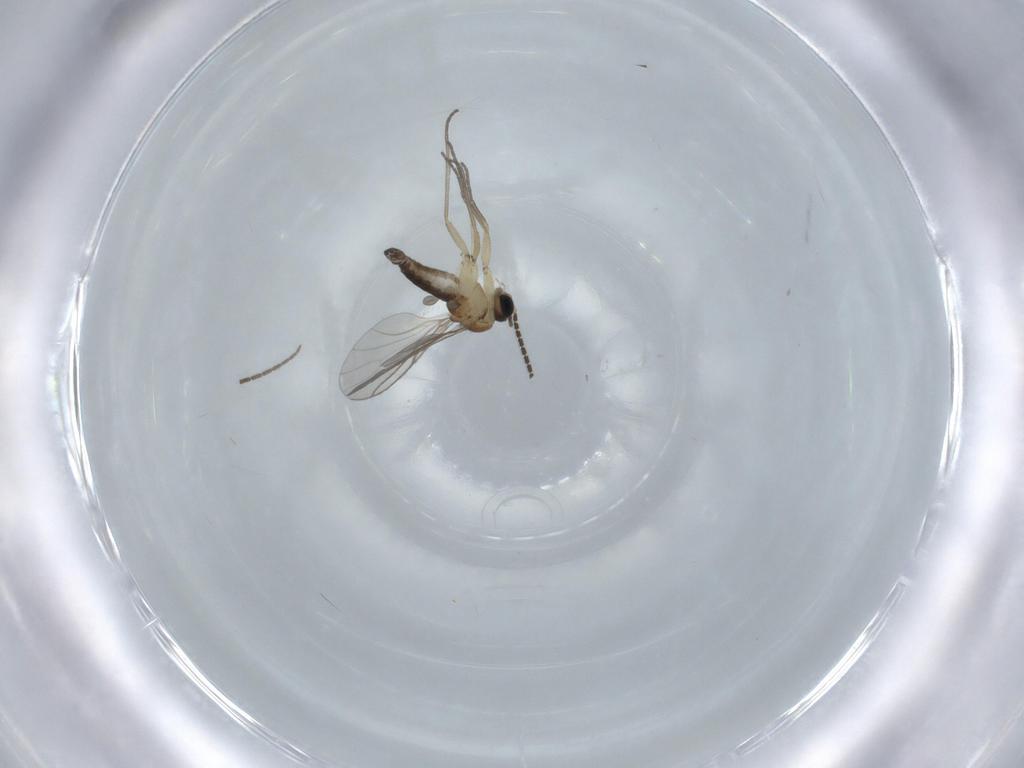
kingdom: Animalia
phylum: Arthropoda
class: Insecta
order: Diptera
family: Sciaridae
